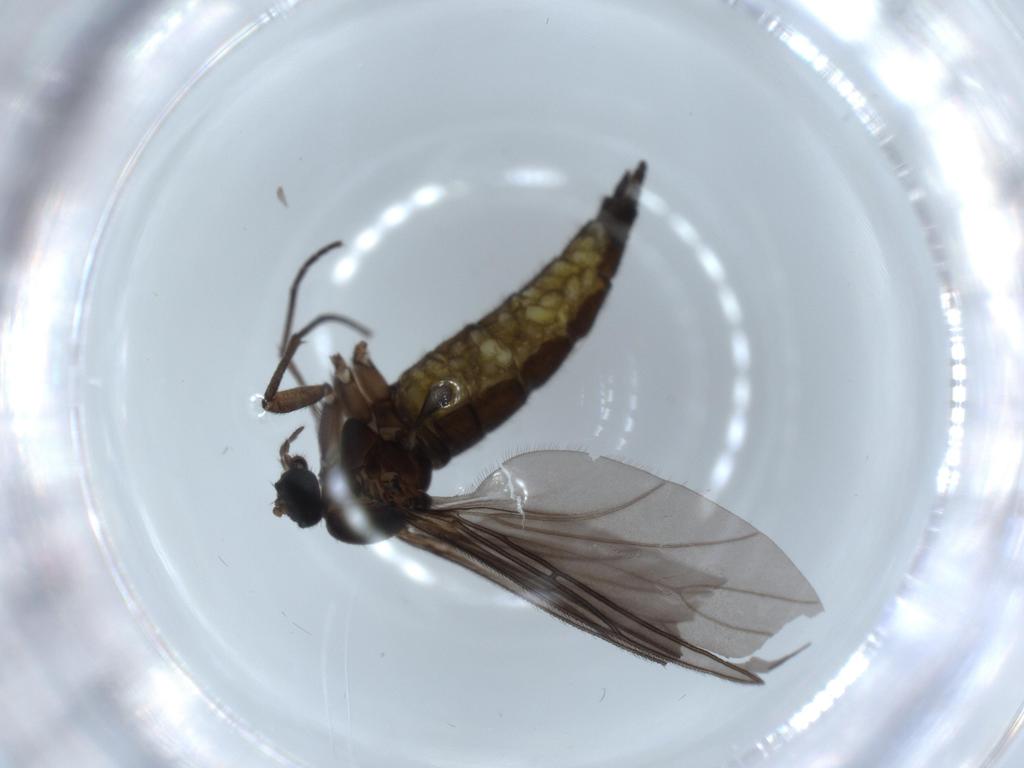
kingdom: Animalia
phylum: Arthropoda
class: Insecta
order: Diptera
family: Sciaridae
